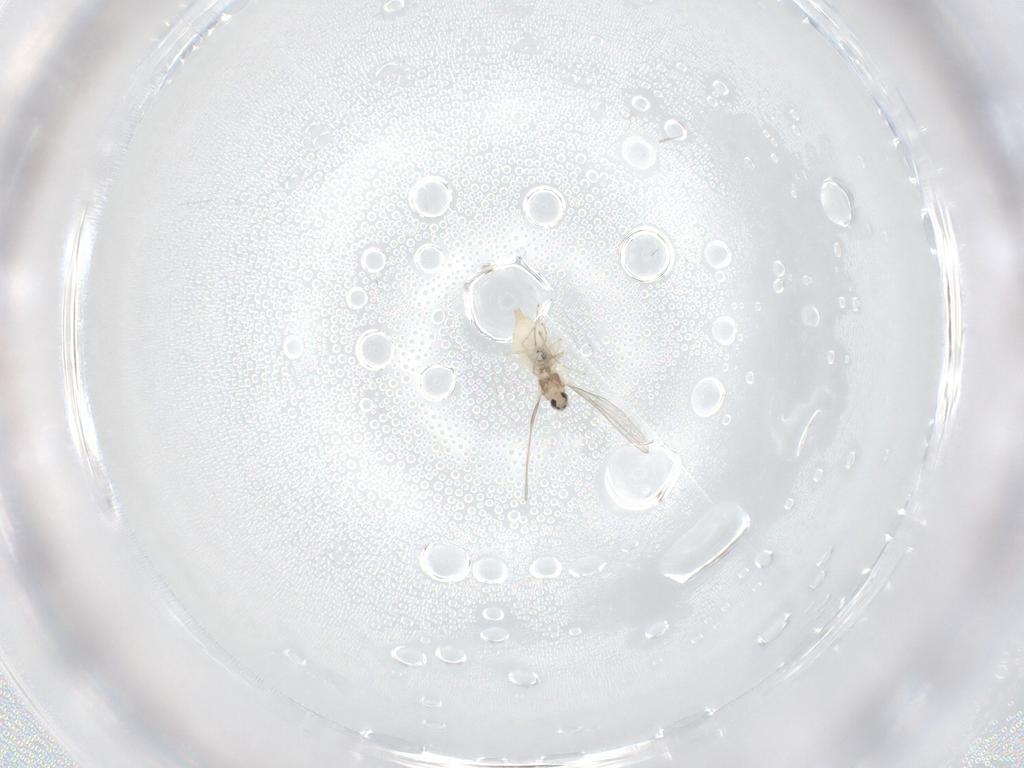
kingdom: Animalia
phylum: Arthropoda
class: Insecta
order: Diptera
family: Cecidomyiidae
